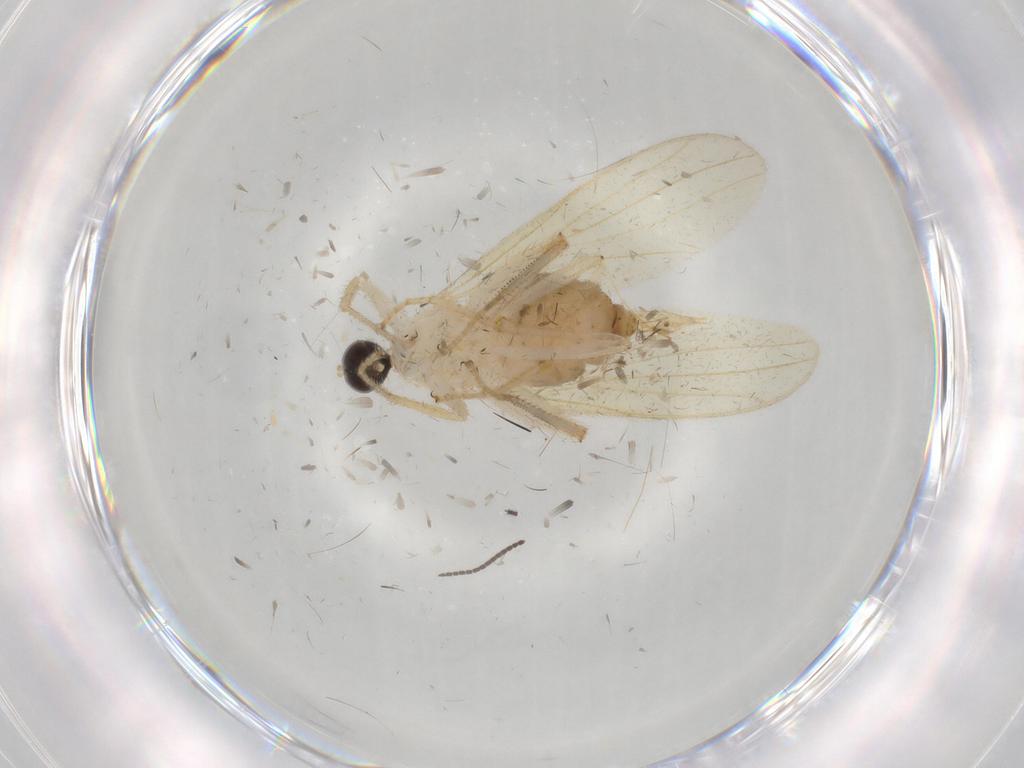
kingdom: Animalia
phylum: Arthropoda
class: Insecta
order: Diptera
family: Hybotidae
